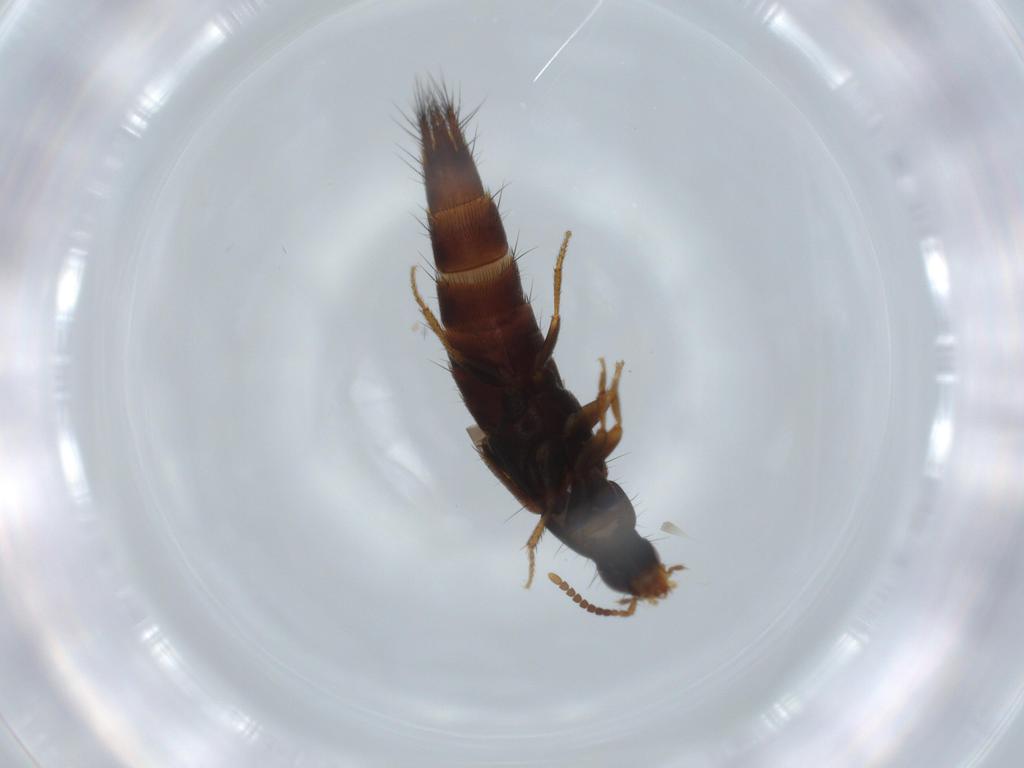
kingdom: Animalia
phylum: Arthropoda
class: Insecta
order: Coleoptera
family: Staphylinidae
